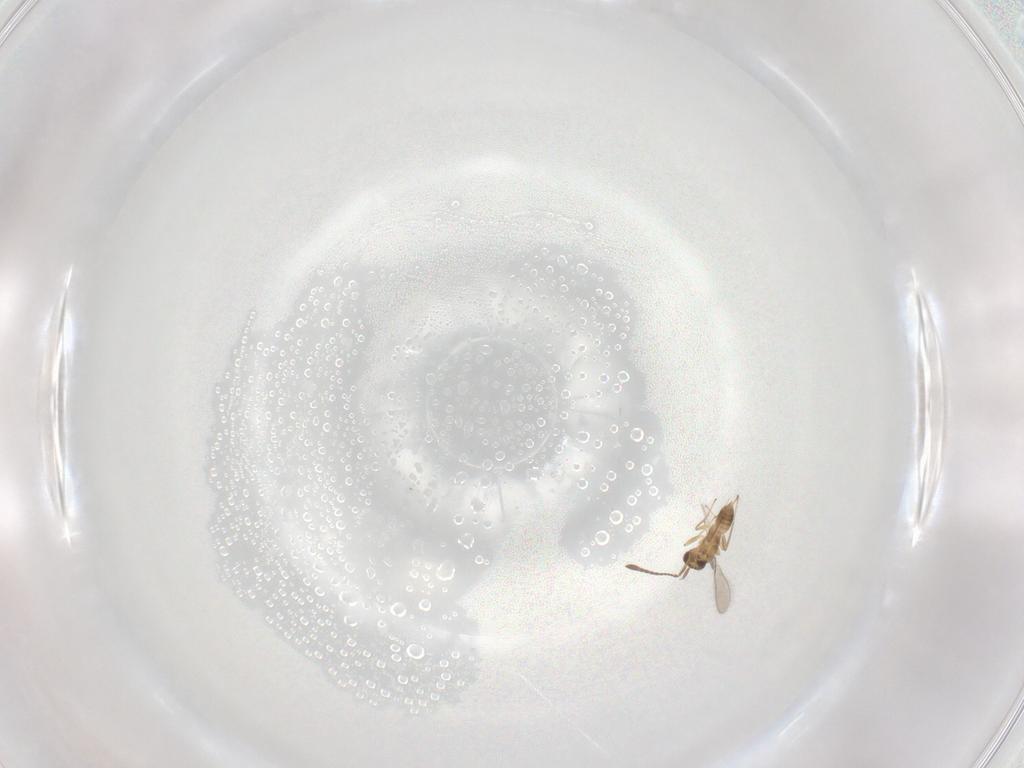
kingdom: Animalia
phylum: Arthropoda
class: Insecta
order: Hymenoptera
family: Mymaridae
